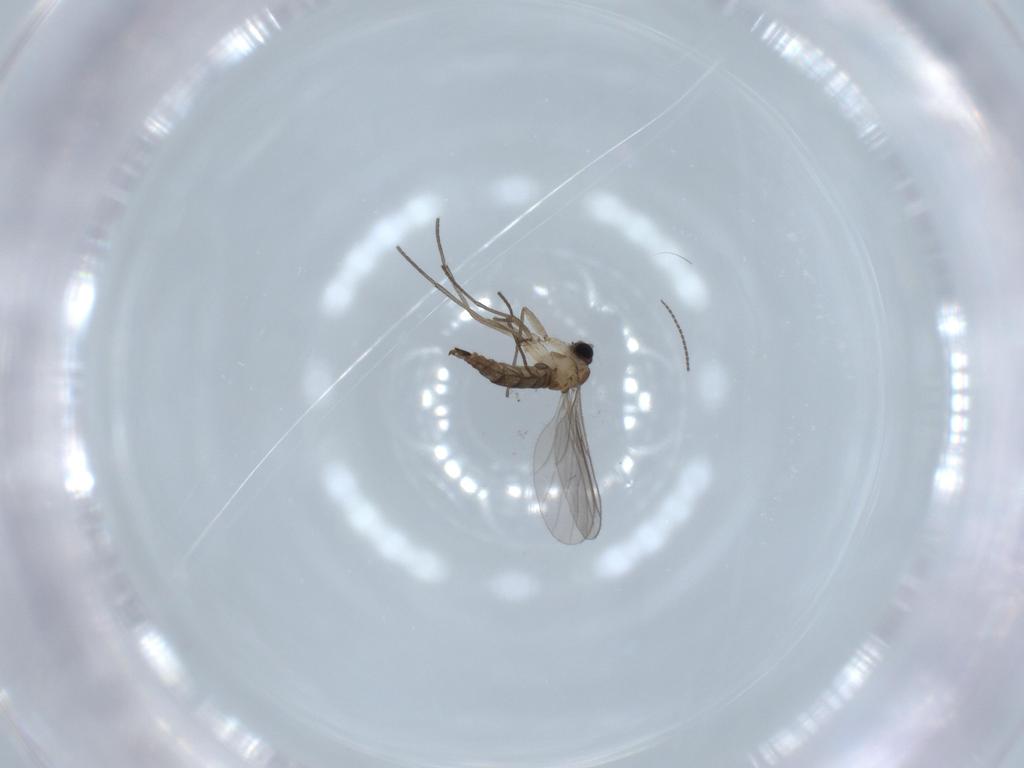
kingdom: Animalia
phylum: Arthropoda
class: Insecta
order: Diptera
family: Sciaridae
